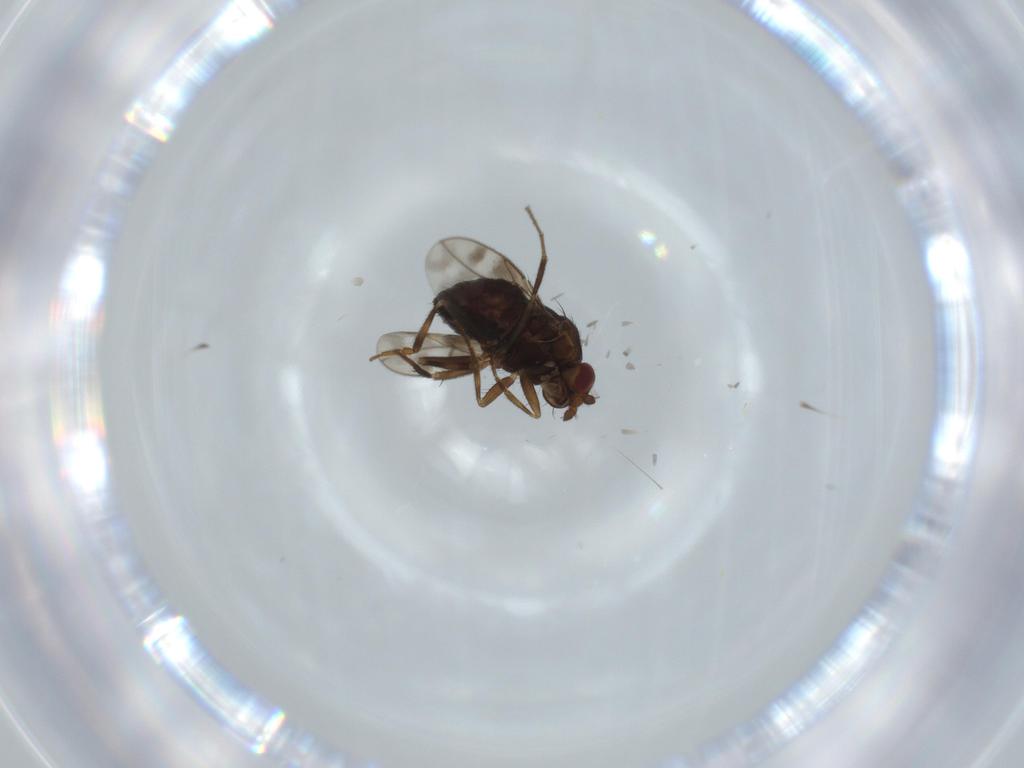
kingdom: Animalia
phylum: Arthropoda
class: Insecta
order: Diptera
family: Sphaeroceridae
